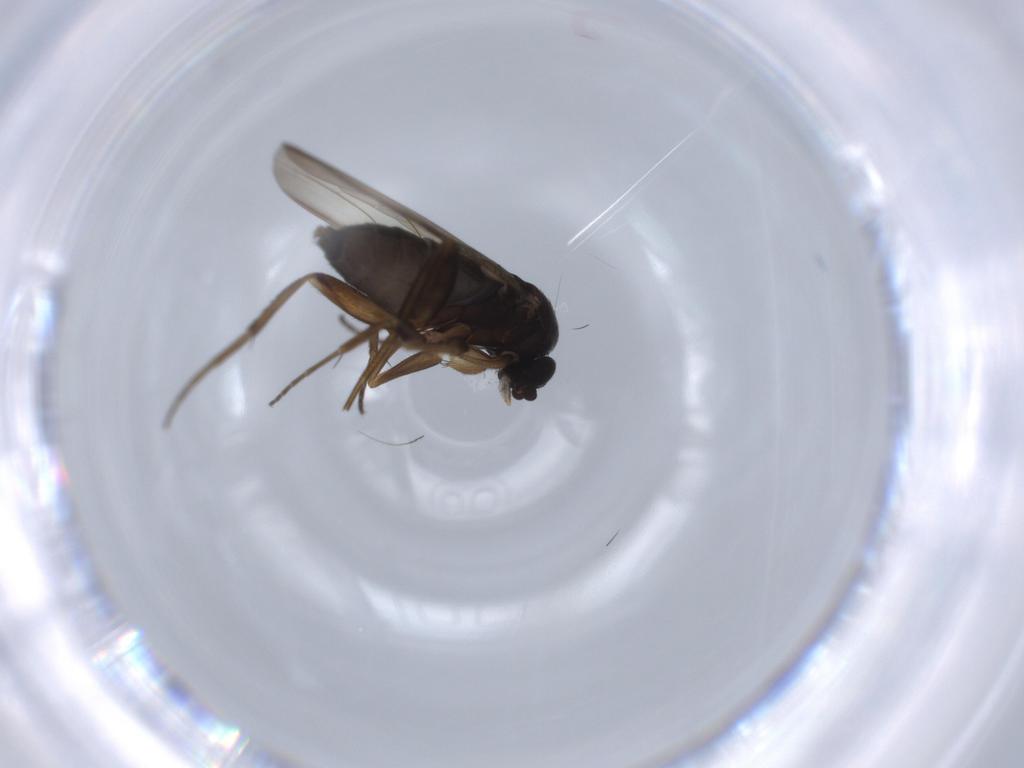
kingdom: Animalia
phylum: Arthropoda
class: Insecta
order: Diptera
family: Phoridae
